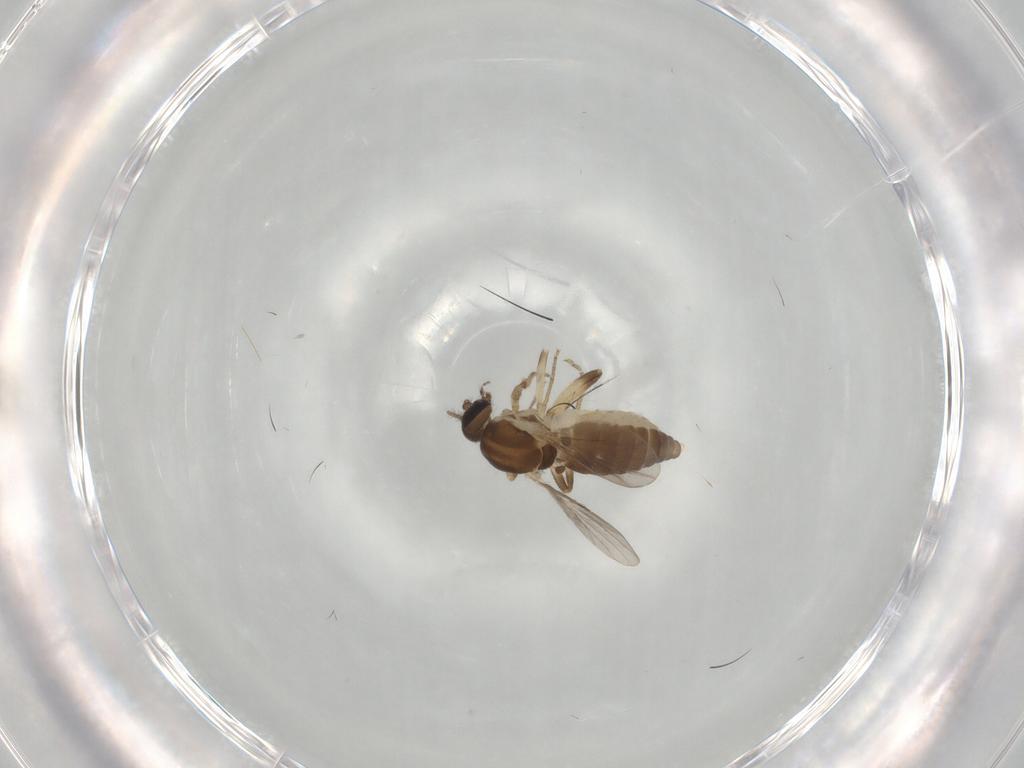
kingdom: Animalia
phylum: Arthropoda
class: Insecta
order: Diptera
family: Ceratopogonidae
